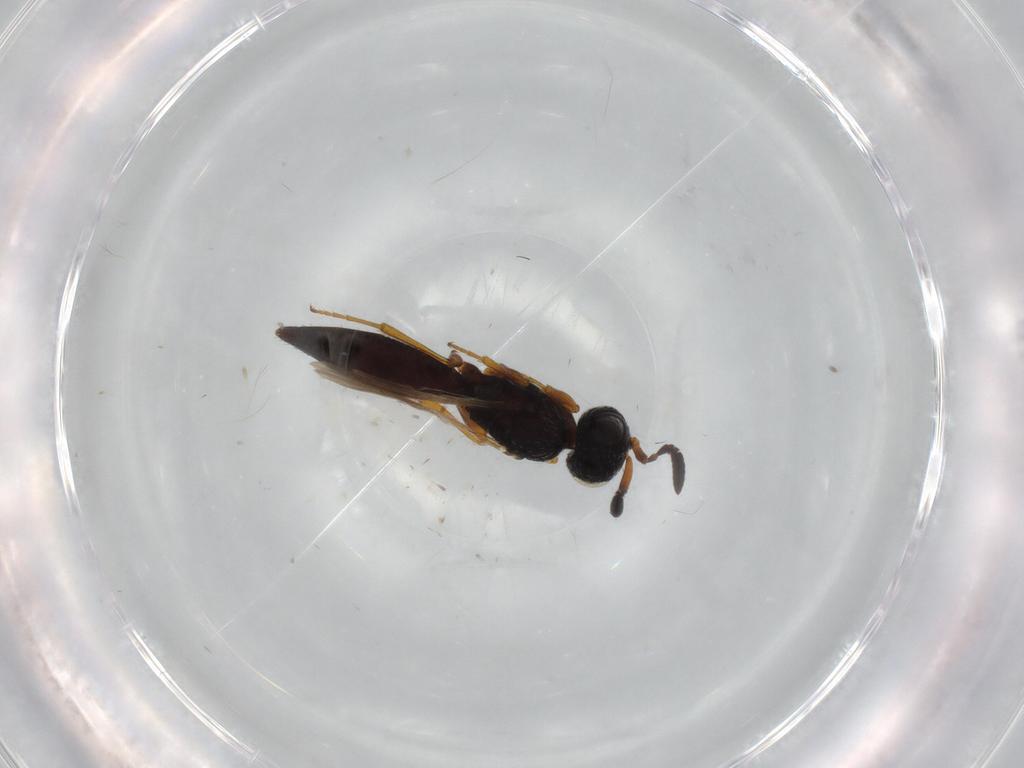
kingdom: Animalia
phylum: Arthropoda
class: Insecta
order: Hymenoptera
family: Scelionidae
